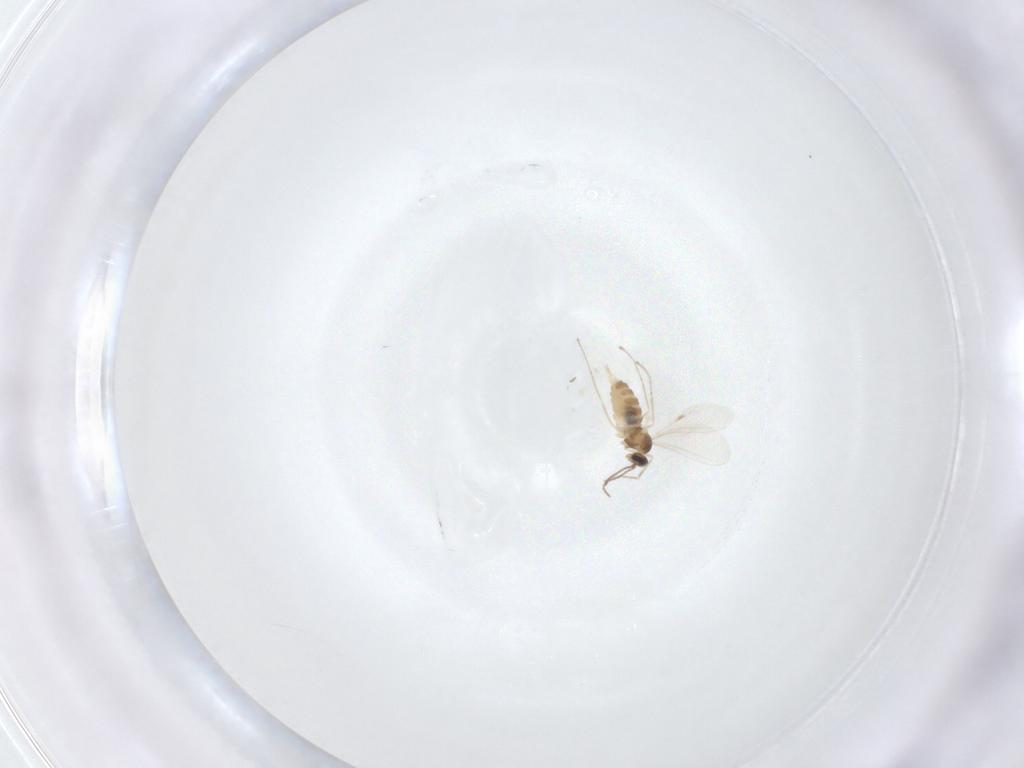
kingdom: Animalia
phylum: Arthropoda
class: Insecta
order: Diptera
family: Cecidomyiidae
